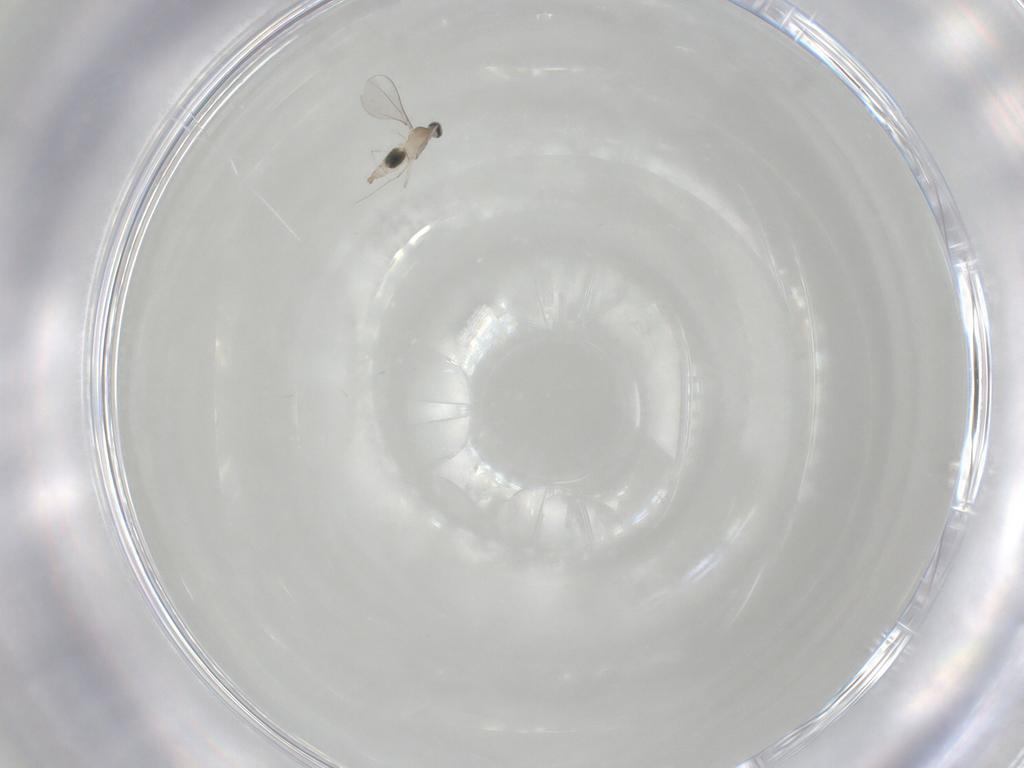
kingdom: Animalia
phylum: Arthropoda
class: Insecta
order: Diptera
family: Cecidomyiidae
